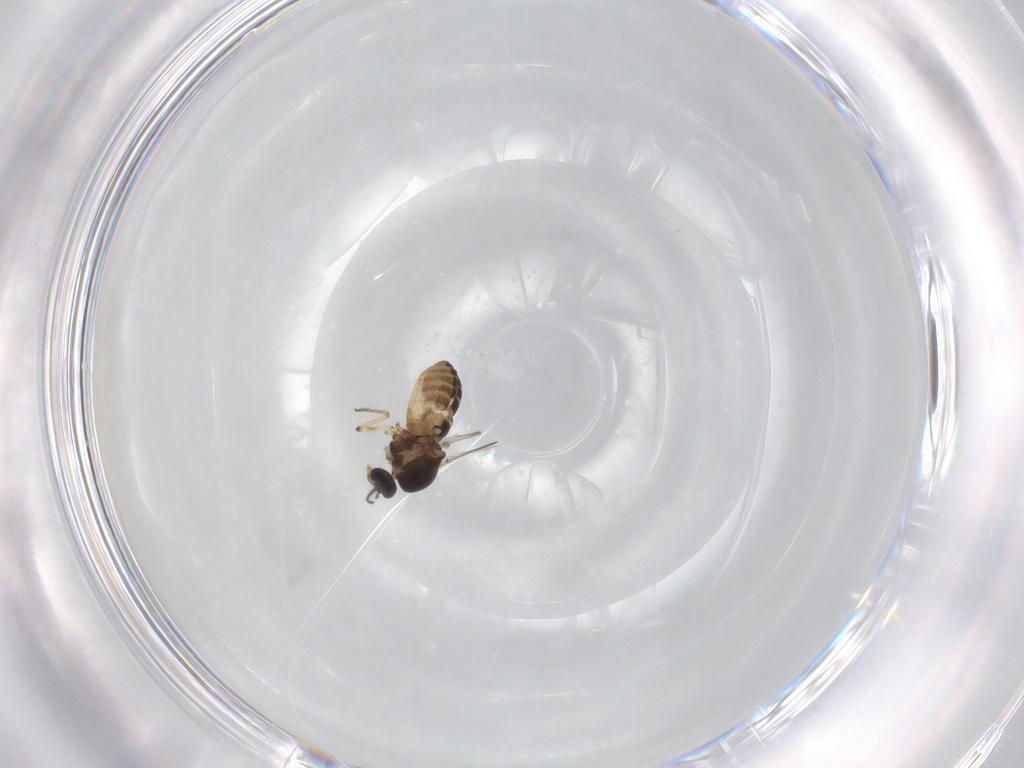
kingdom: Animalia
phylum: Arthropoda
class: Insecta
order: Diptera
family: Ceratopogonidae
